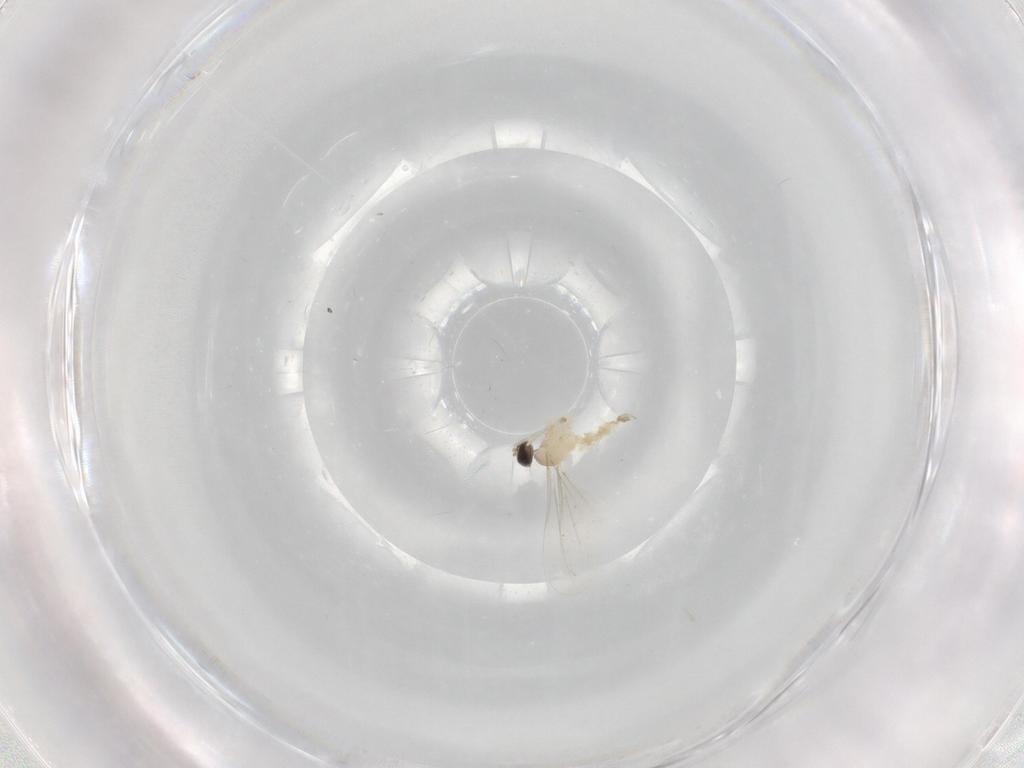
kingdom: Animalia
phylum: Arthropoda
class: Insecta
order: Diptera
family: Cecidomyiidae
